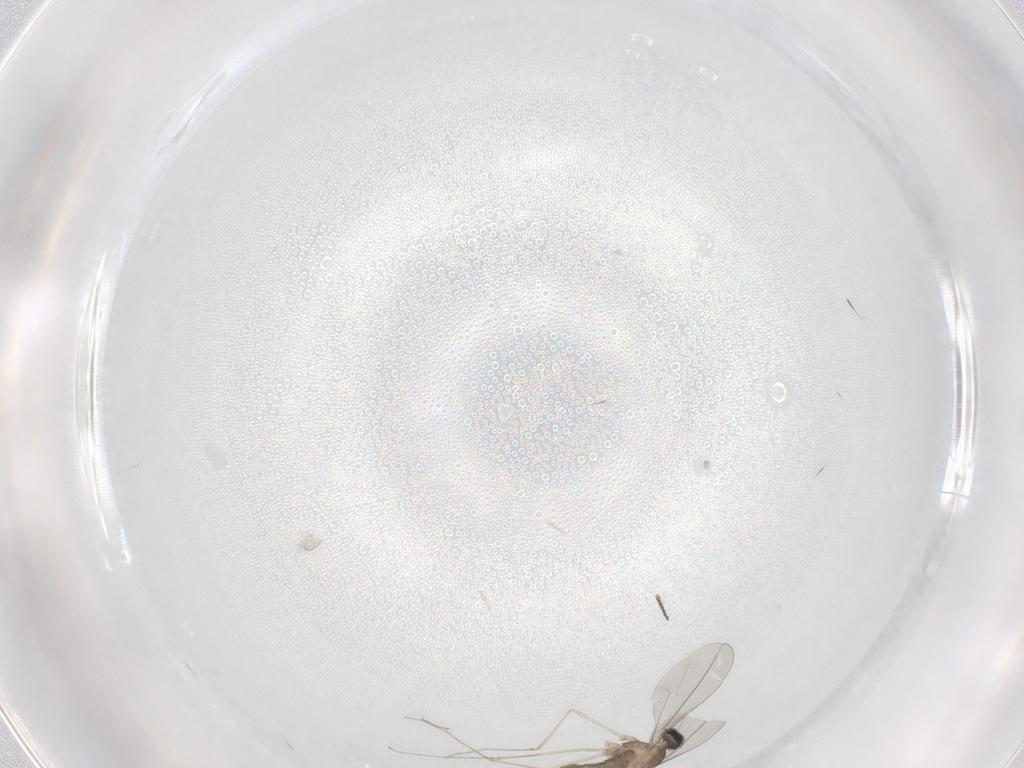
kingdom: Animalia
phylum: Arthropoda
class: Insecta
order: Diptera
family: Cecidomyiidae
